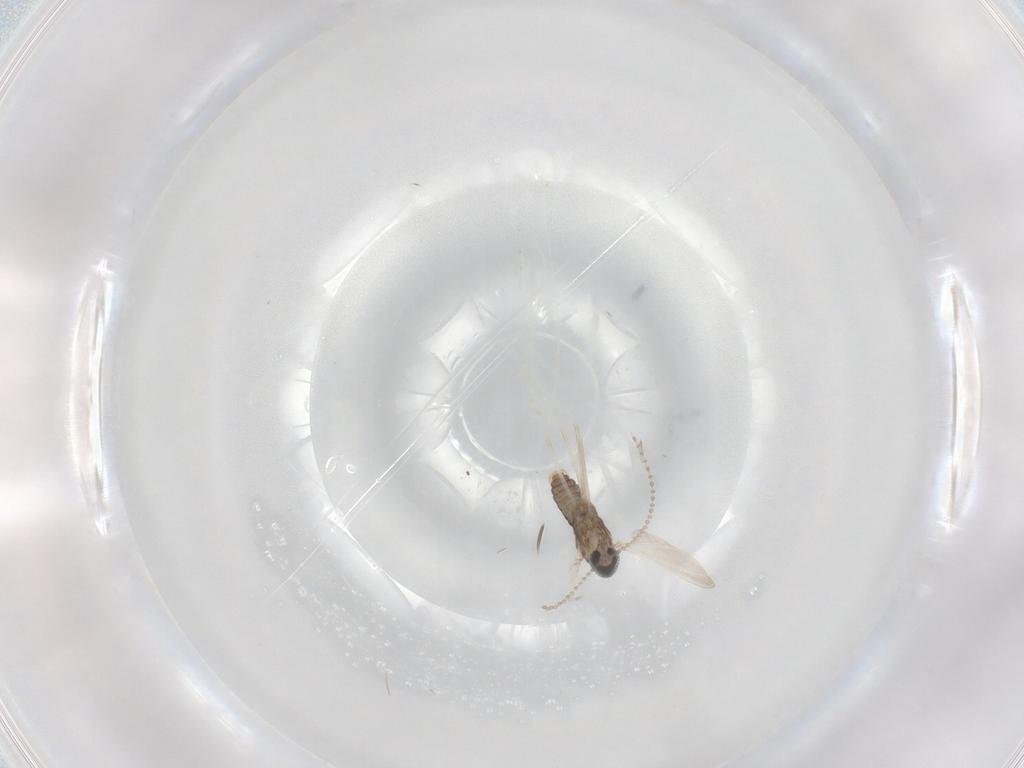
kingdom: Animalia
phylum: Arthropoda
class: Insecta
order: Diptera
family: Cecidomyiidae
